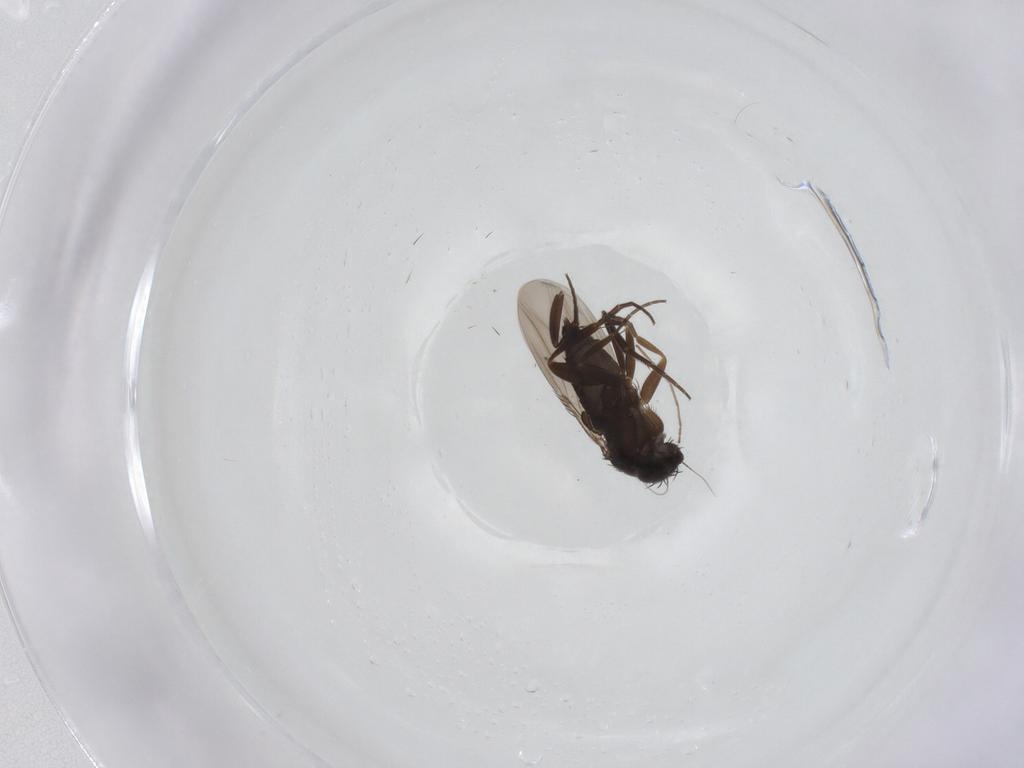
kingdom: Animalia
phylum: Arthropoda
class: Insecta
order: Diptera
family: Phoridae
